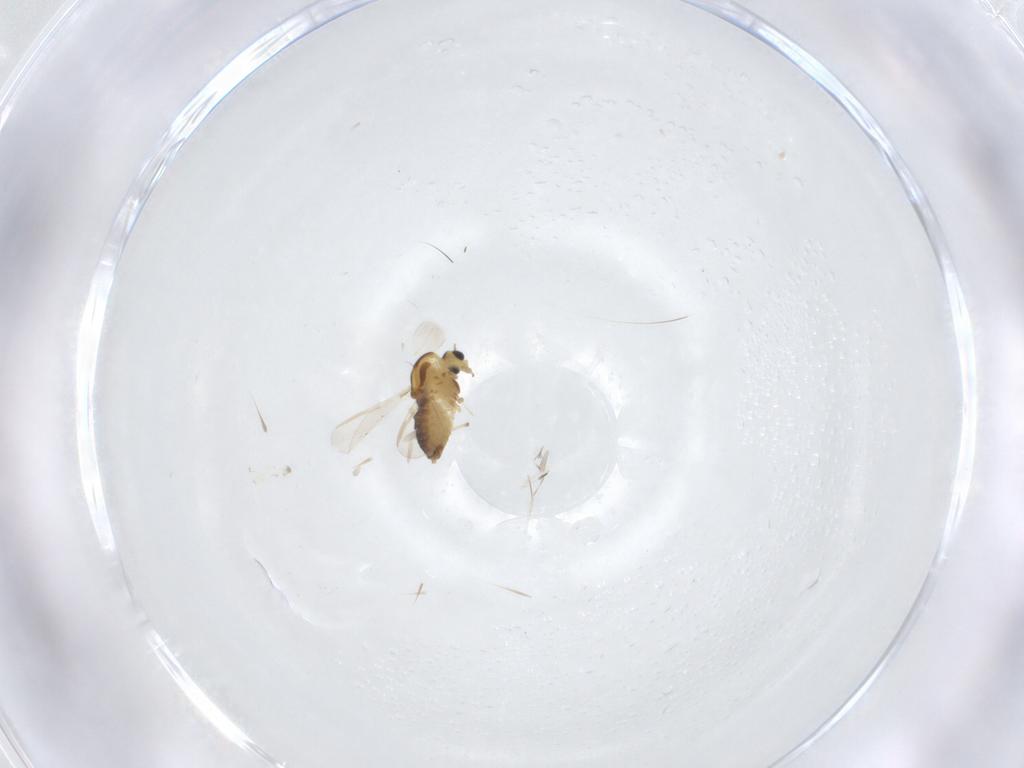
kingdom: Animalia
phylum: Arthropoda
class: Insecta
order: Diptera
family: Chironomidae
